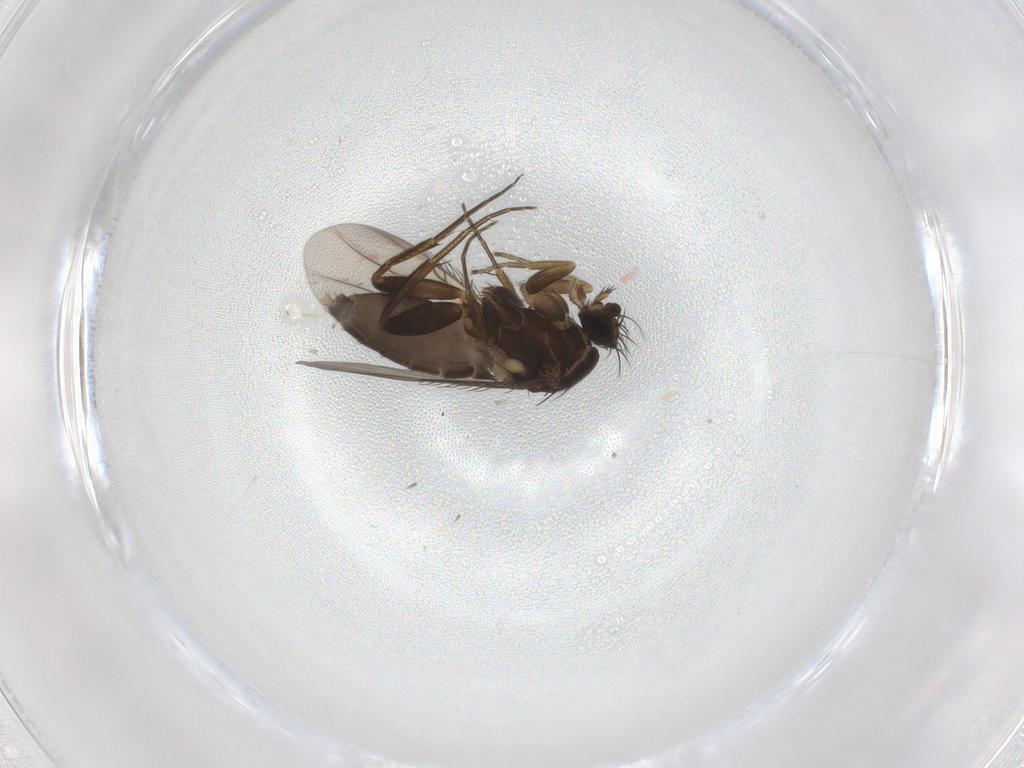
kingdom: Animalia
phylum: Arthropoda
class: Insecta
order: Diptera
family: Phoridae
